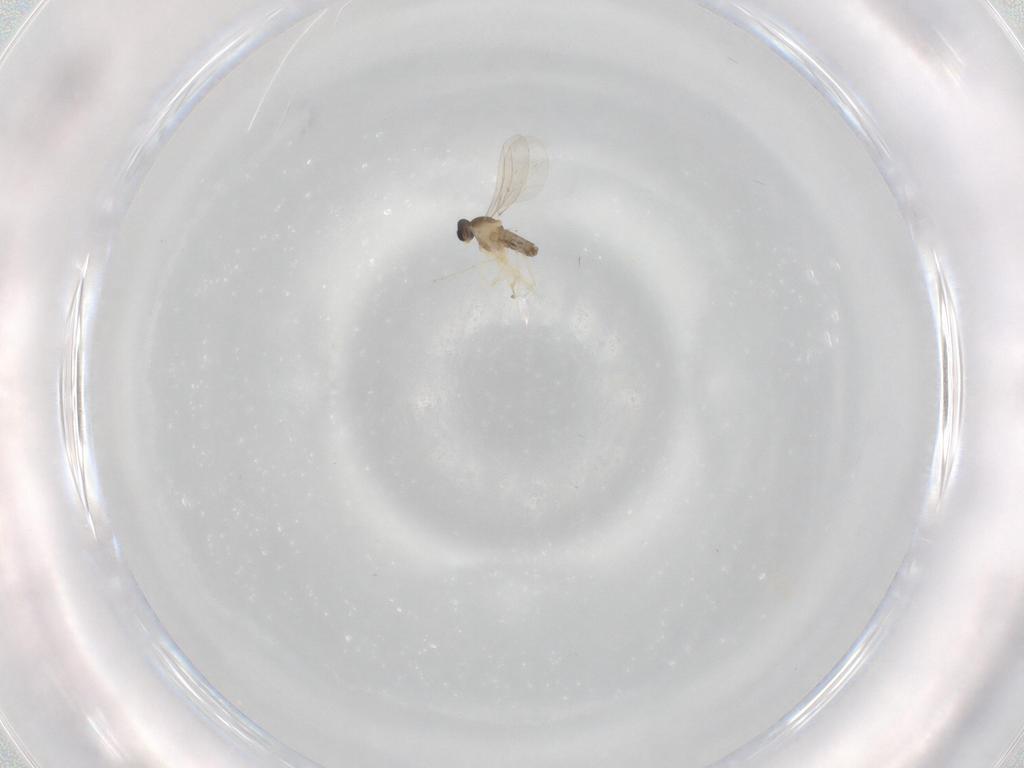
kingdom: Animalia
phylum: Arthropoda
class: Insecta
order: Diptera
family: Cecidomyiidae
